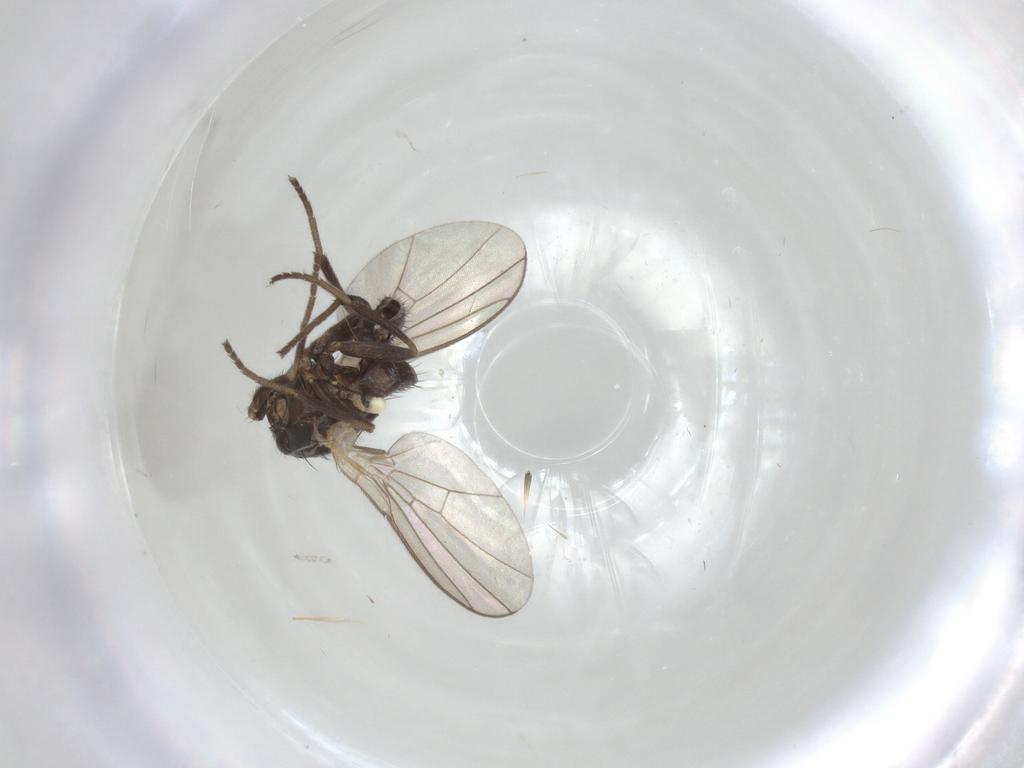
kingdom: Animalia
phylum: Arthropoda
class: Insecta
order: Diptera
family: Agromyzidae
